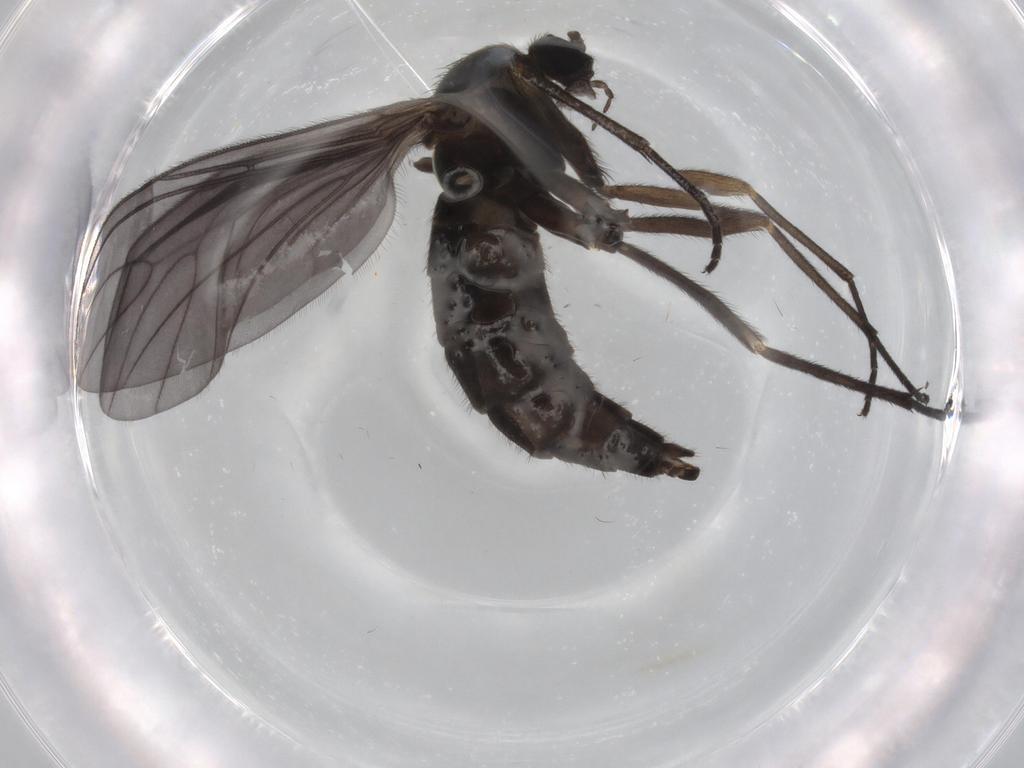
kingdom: Animalia
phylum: Arthropoda
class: Insecta
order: Diptera
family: Sciaridae
